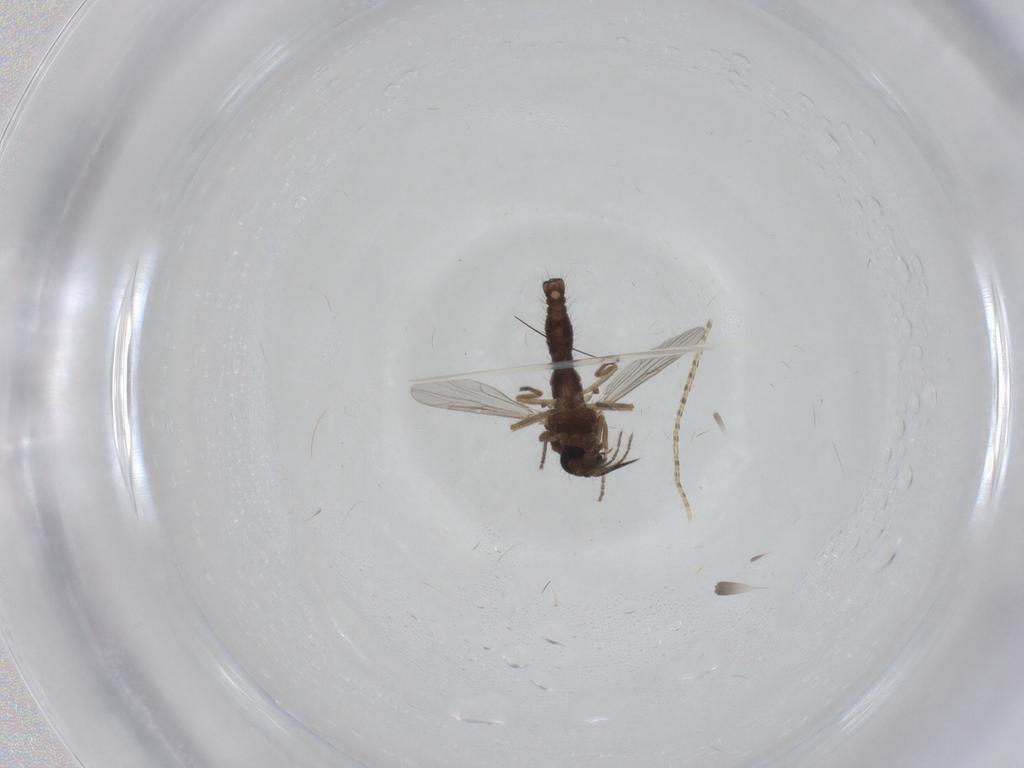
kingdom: Animalia
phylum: Arthropoda
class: Insecta
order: Diptera
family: Ceratopogonidae
